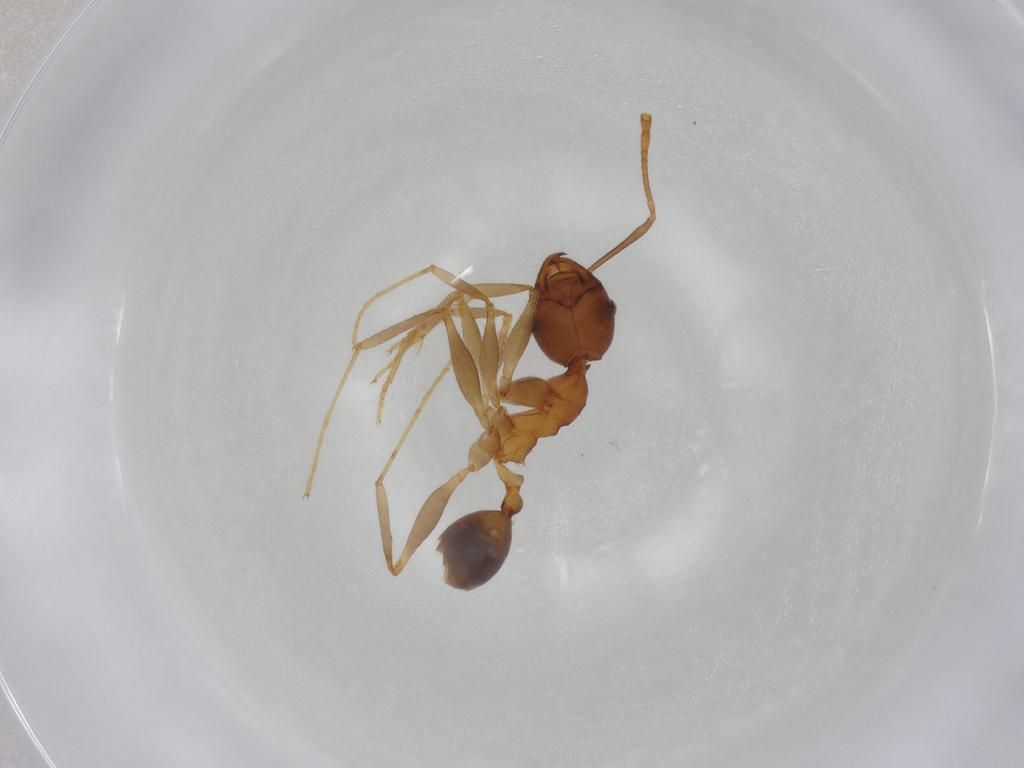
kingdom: Animalia
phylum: Arthropoda
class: Insecta
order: Hymenoptera
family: Formicidae
